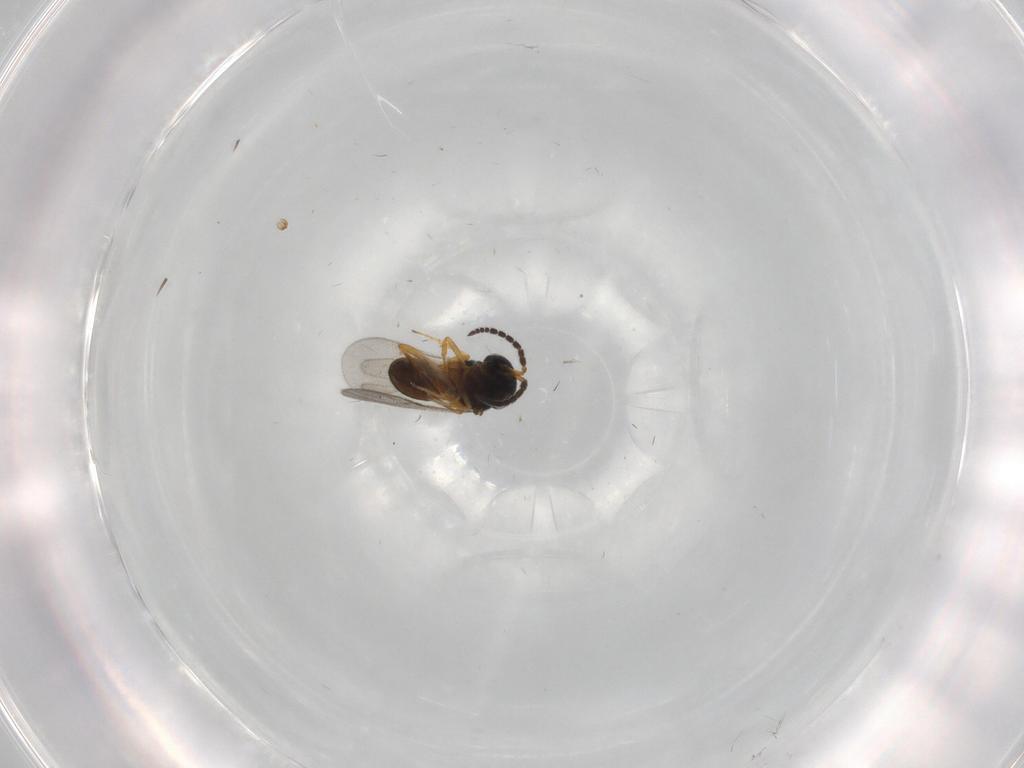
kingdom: Animalia
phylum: Arthropoda
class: Insecta
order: Coleoptera
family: Curculionidae
